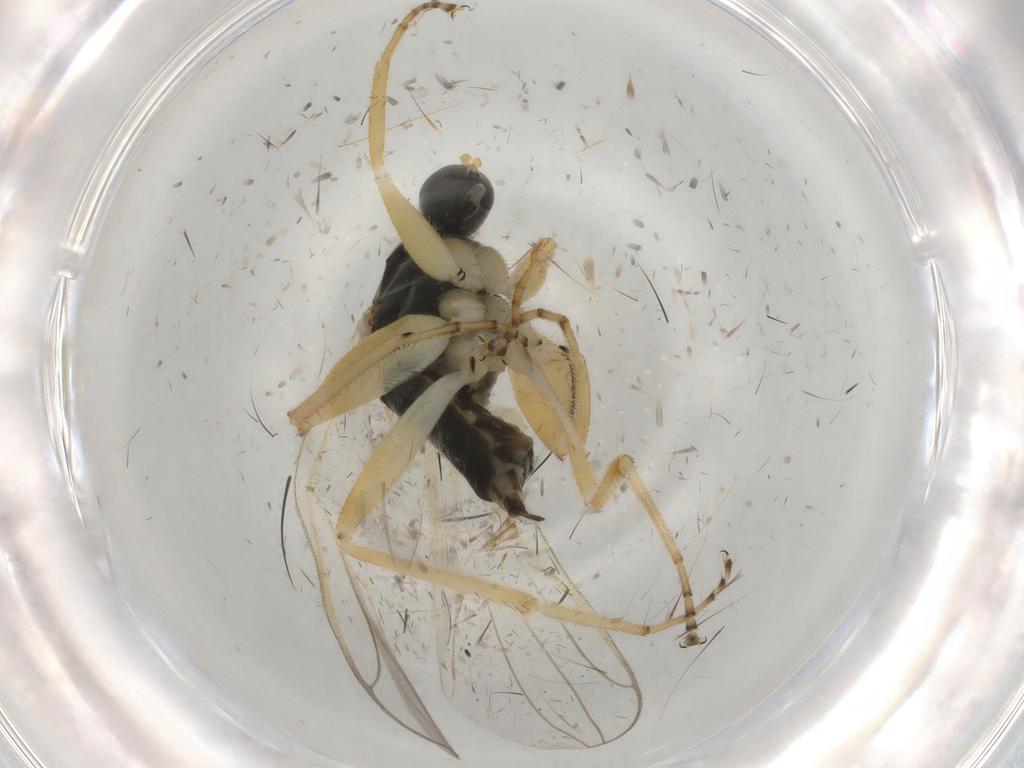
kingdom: Animalia
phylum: Arthropoda
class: Insecta
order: Diptera
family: Hybotidae
